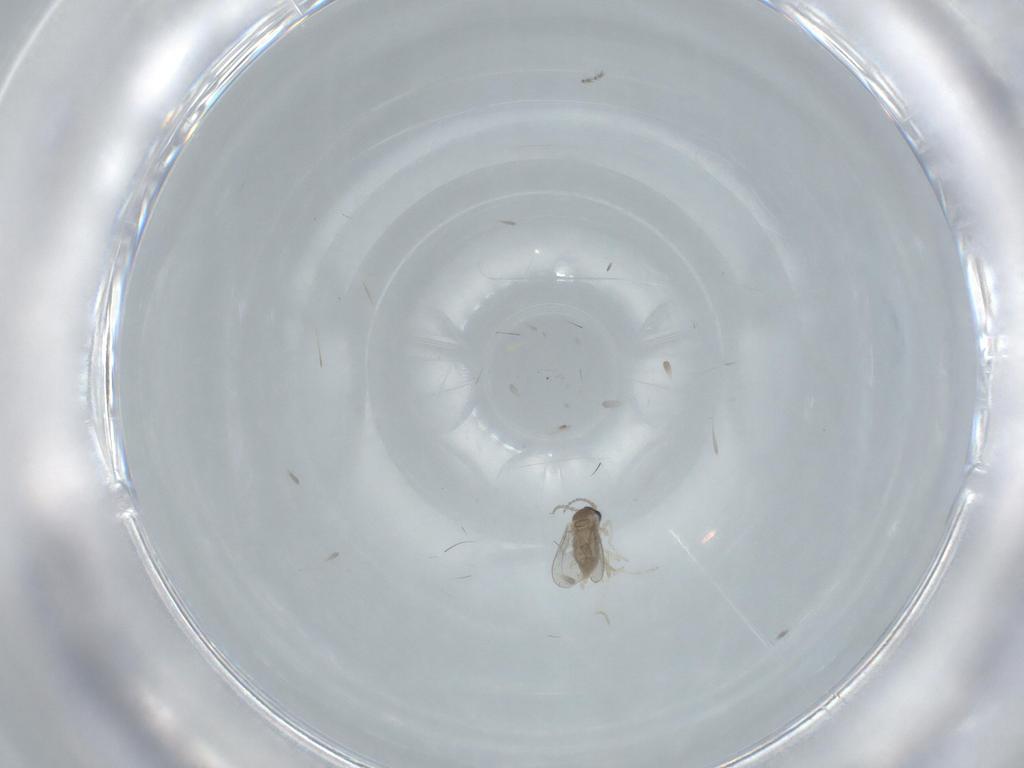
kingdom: Animalia
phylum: Arthropoda
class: Insecta
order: Diptera
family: Cecidomyiidae
